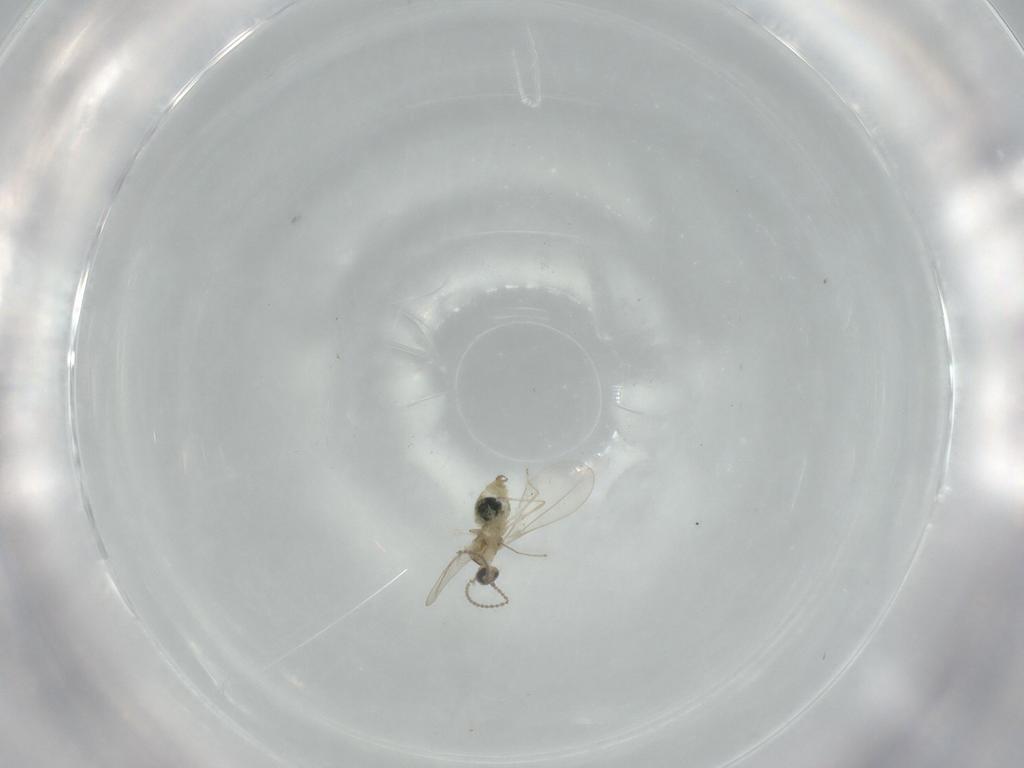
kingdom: Animalia
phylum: Arthropoda
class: Insecta
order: Diptera
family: Cecidomyiidae
